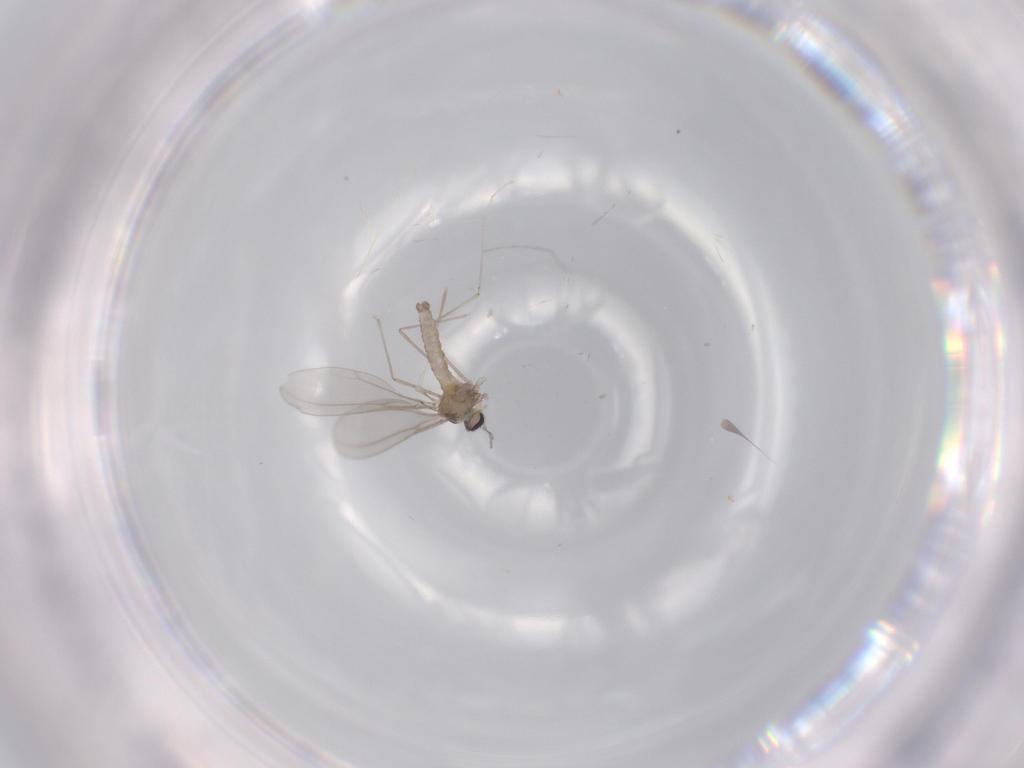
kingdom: Animalia
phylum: Arthropoda
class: Insecta
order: Diptera
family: Cecidomyiidae
